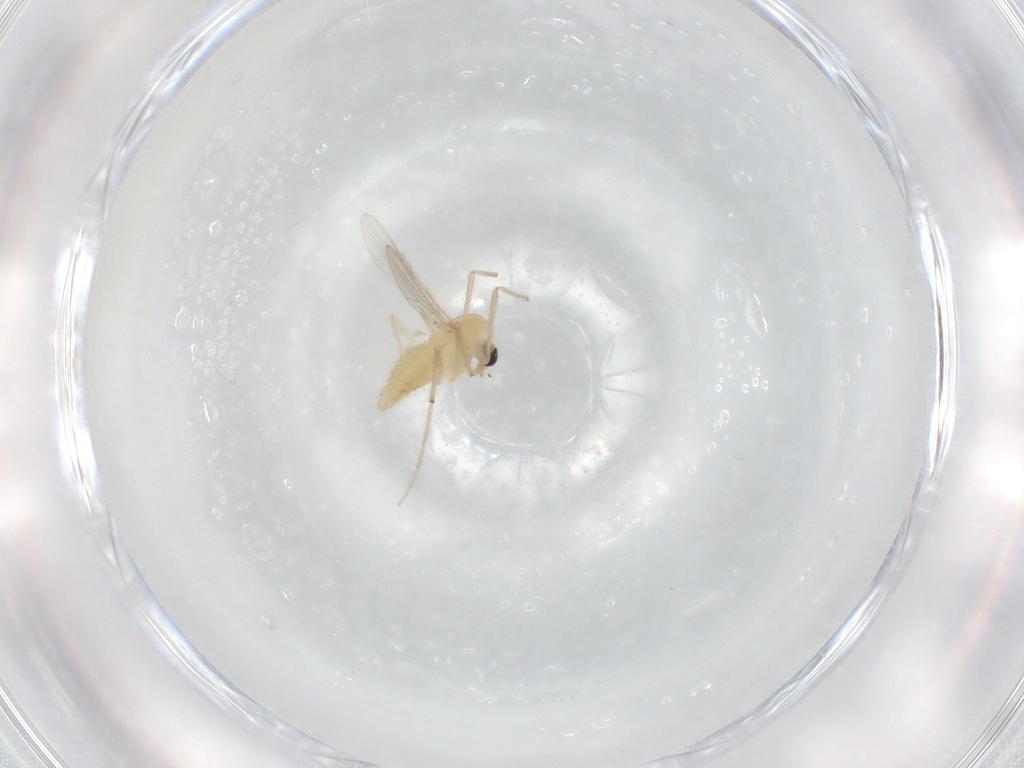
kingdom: Animalia
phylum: Arthropoda
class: Insecta
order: Diptera
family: Chironomidae
